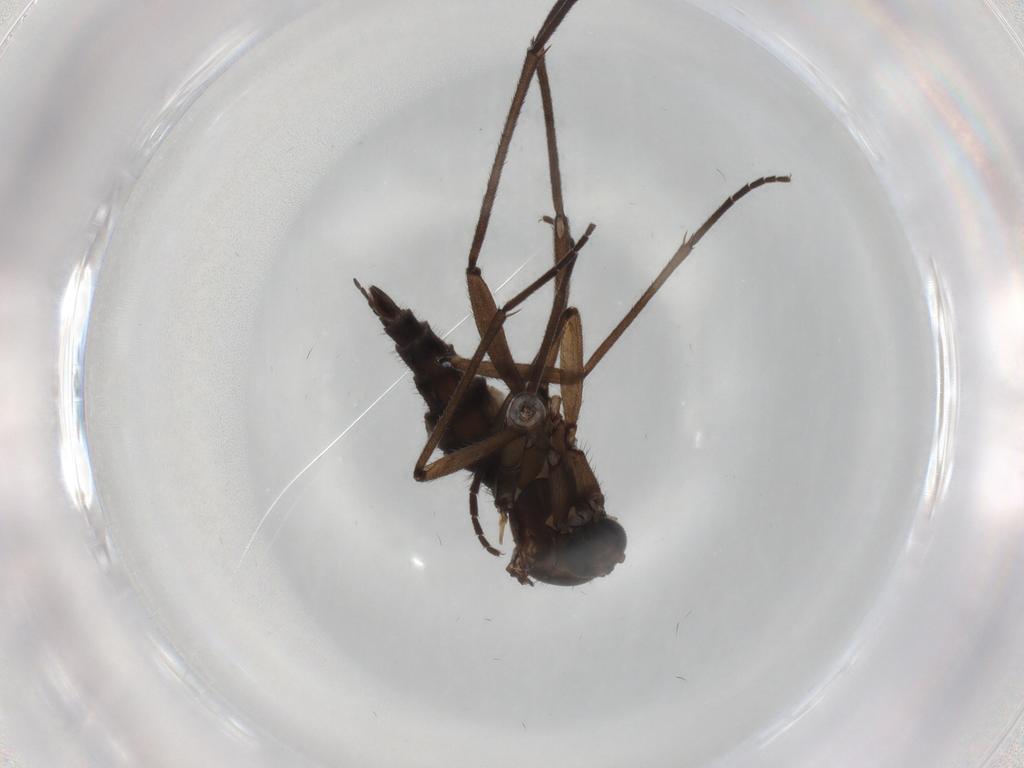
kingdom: Animalia
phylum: Arthropoda
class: Insecta
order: Diptera
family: Sciaridae
